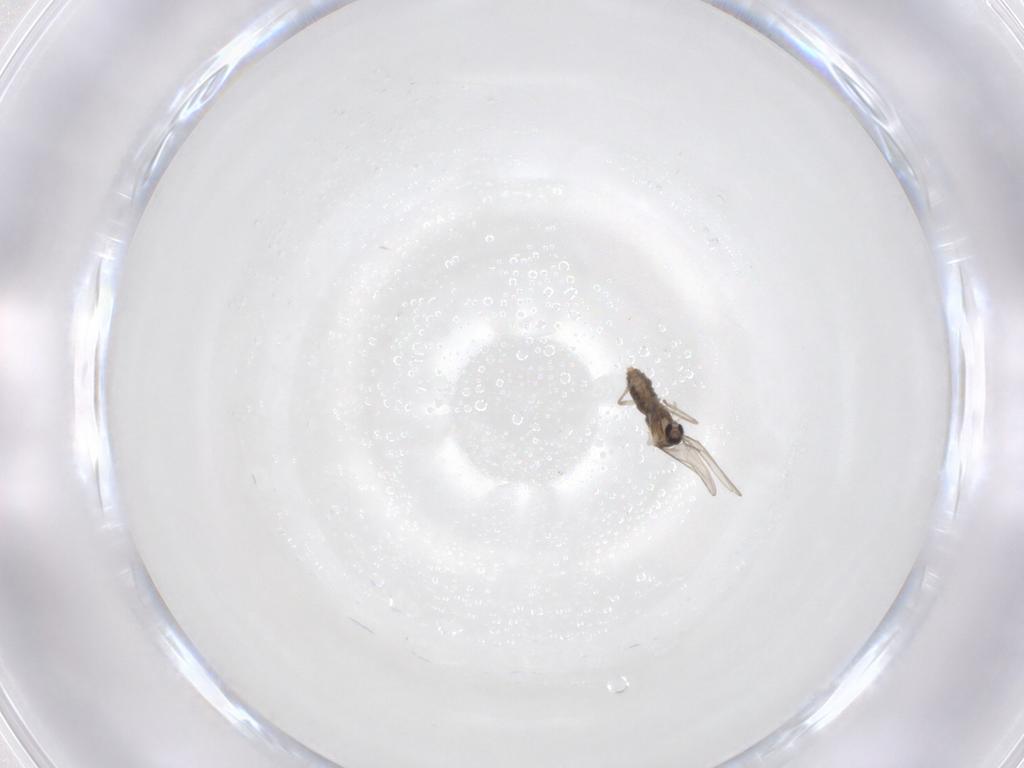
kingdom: Animalia
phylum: Arthropoda
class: Insecta
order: Diptera
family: Cecidomyiidae
